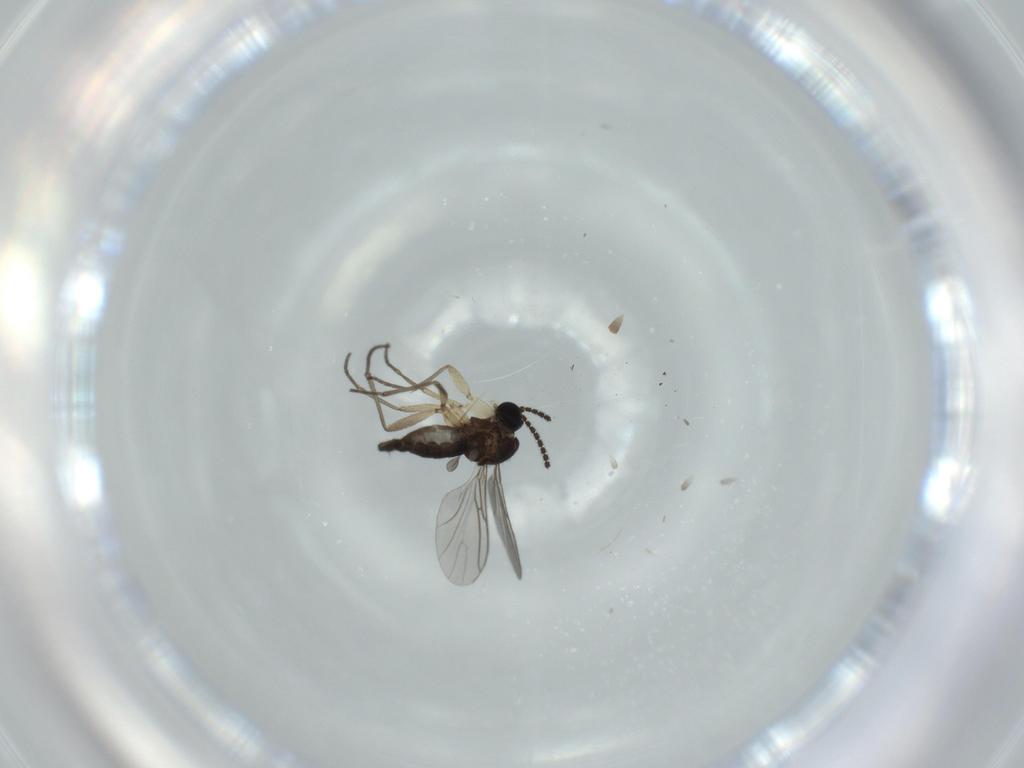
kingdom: Animalia
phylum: Arthropoda
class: Insecta
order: Diptera
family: Sciaridae
